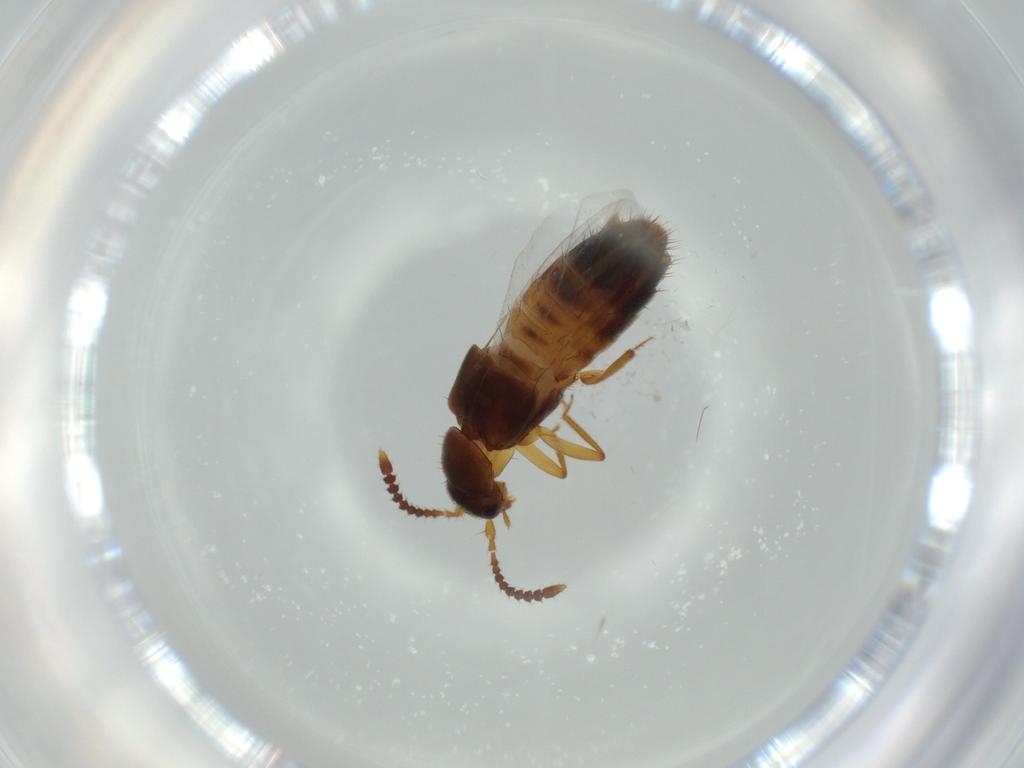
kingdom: Animalia
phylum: Arthropoda
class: Insecta
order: Coleoptera
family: Staphylinidae
